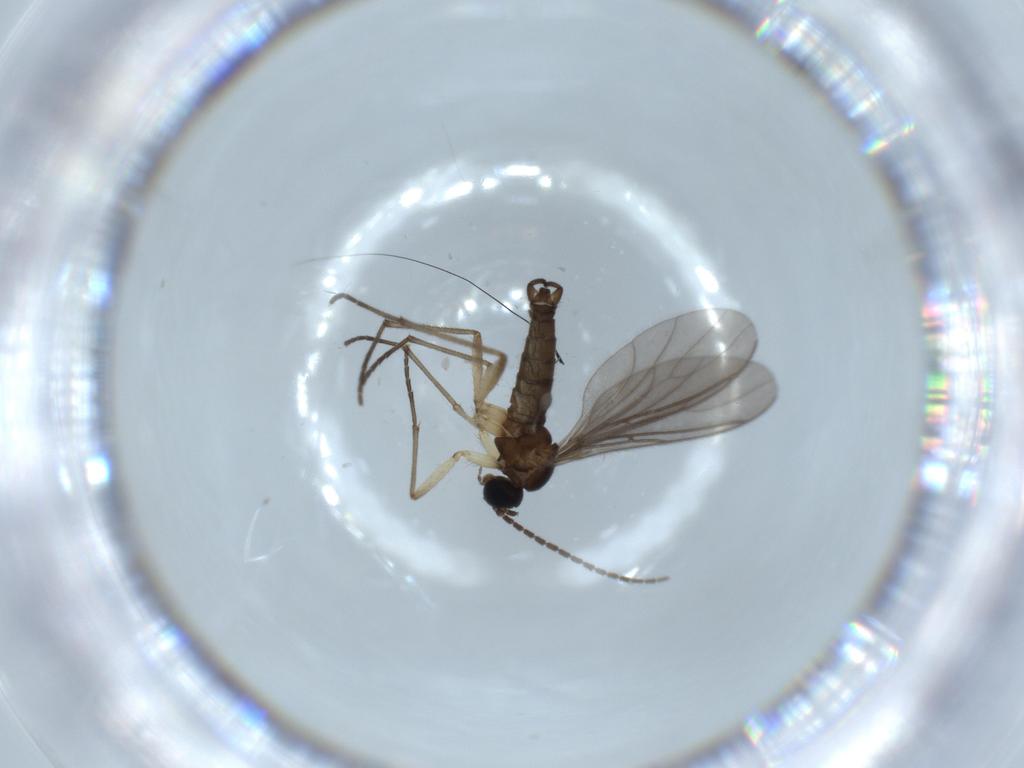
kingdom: Animalia
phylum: Arthropoda
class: Insecta
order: Diptera
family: Sciaridae
